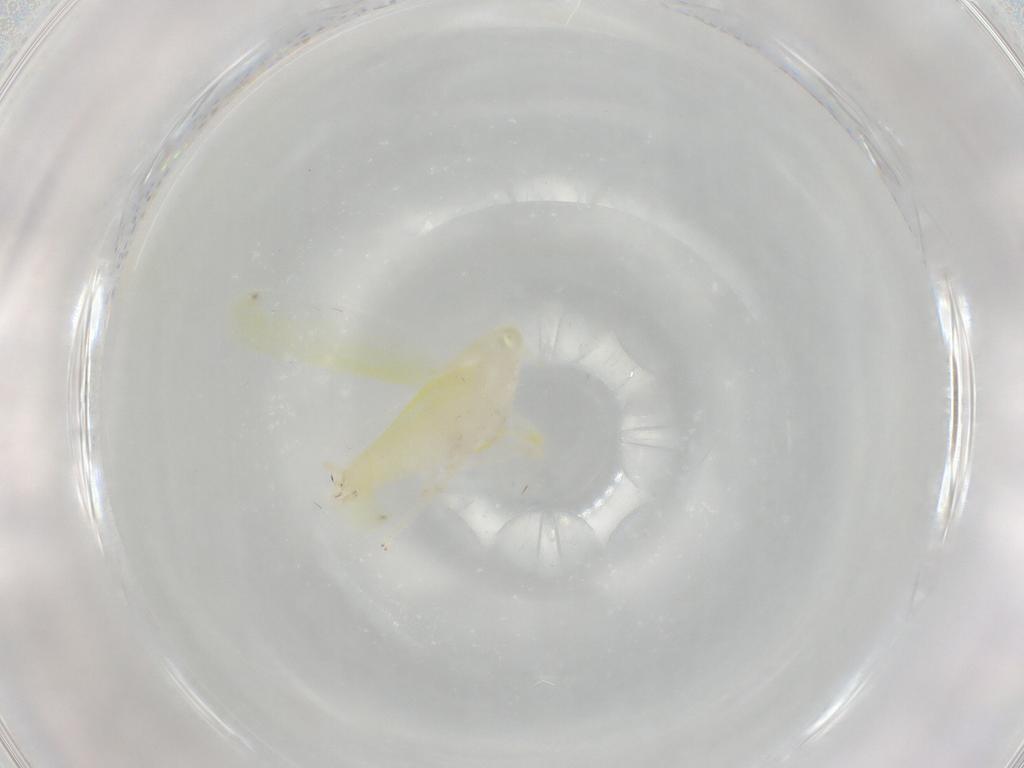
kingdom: Animalia
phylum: Arthropoda
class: Insecta
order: Hemiptera
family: Cicadellidae
